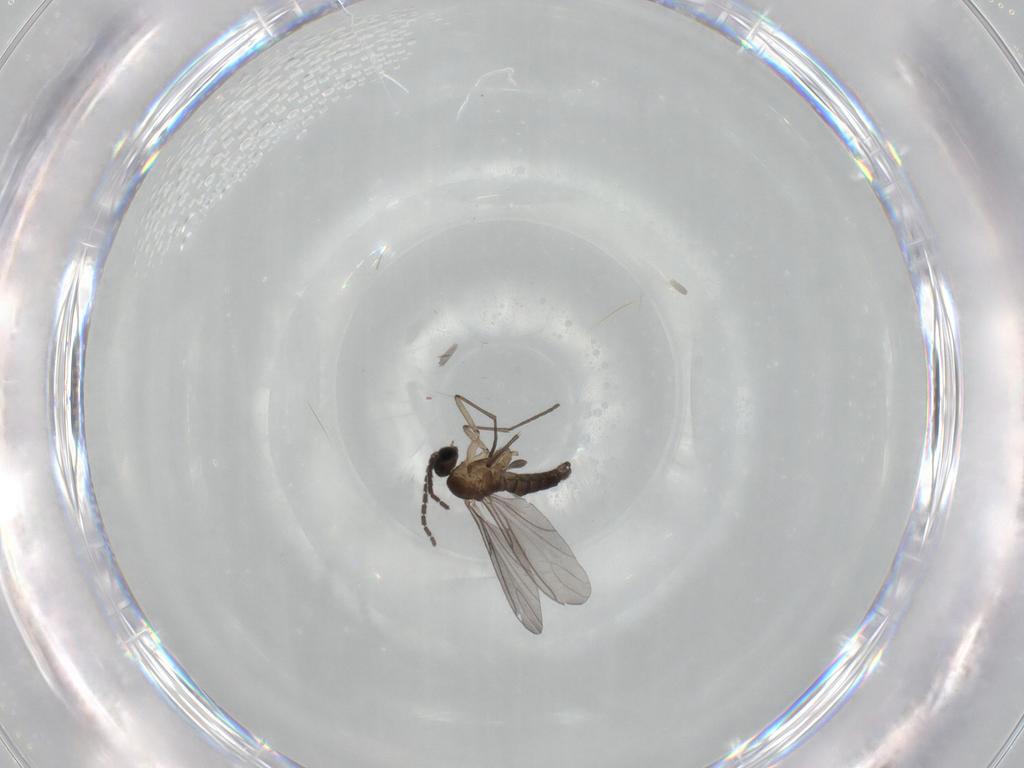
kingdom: Animalia
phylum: Arthropoda
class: Insecta
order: Diptera
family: Sciaridae
